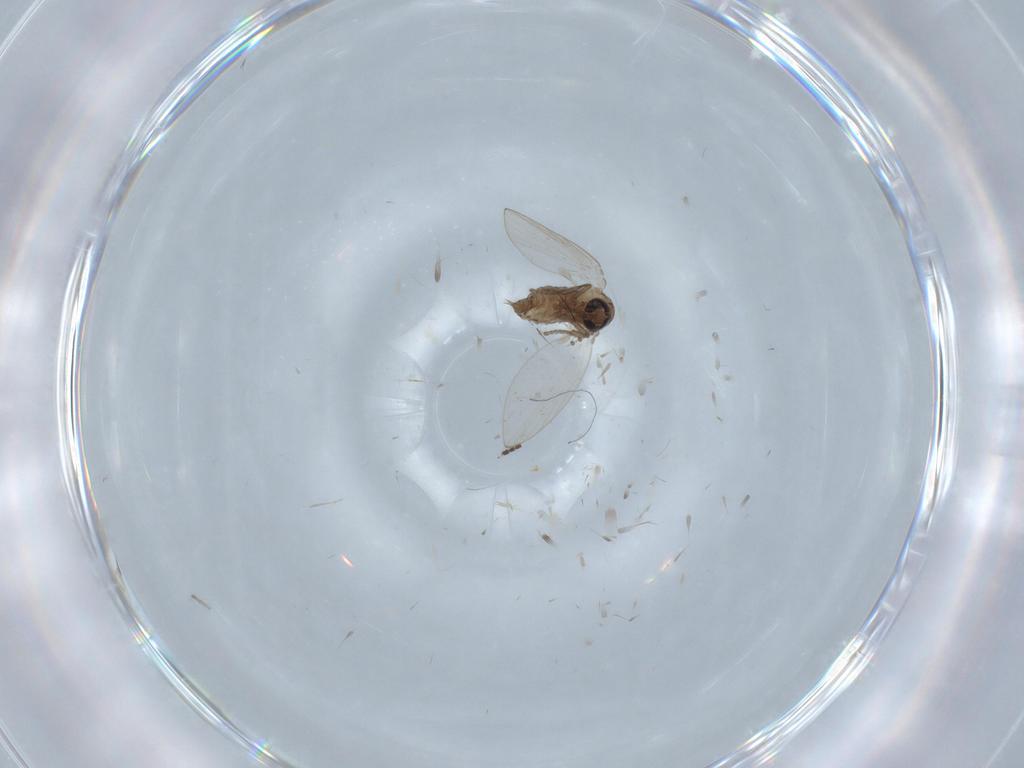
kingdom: Animalia
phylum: Arthropoda
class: Insecta
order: Diptera
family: Psychodidae
